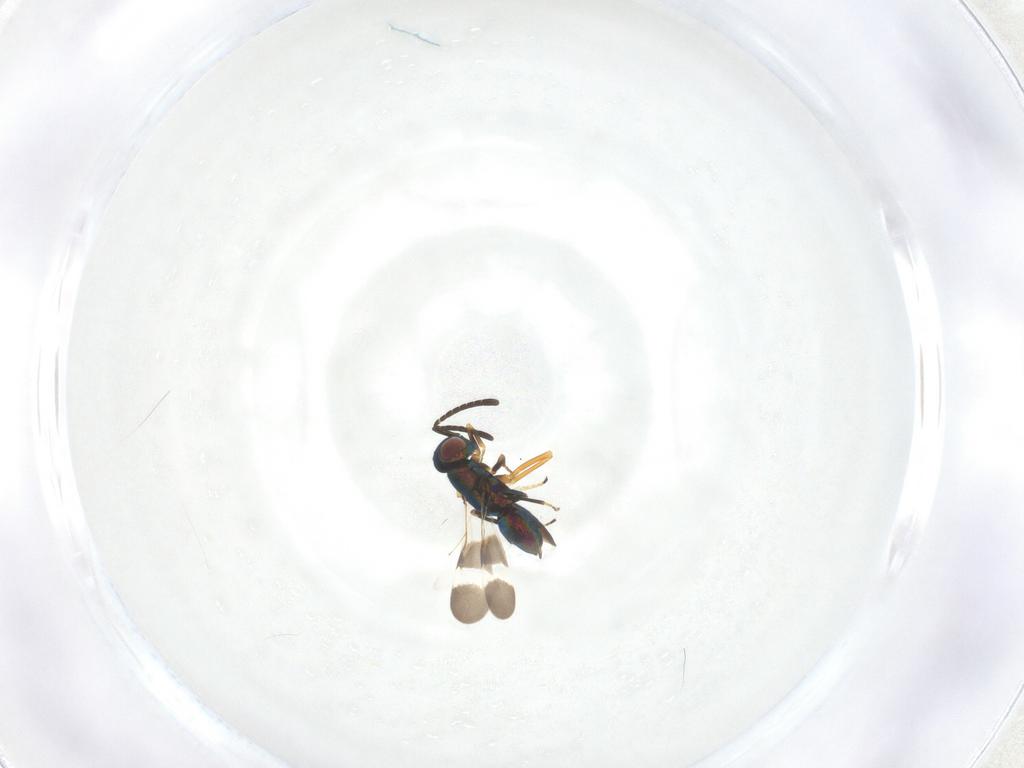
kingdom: Animalia
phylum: Arthropoda
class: Insecta
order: Hymenoptera
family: Encyrtidae
